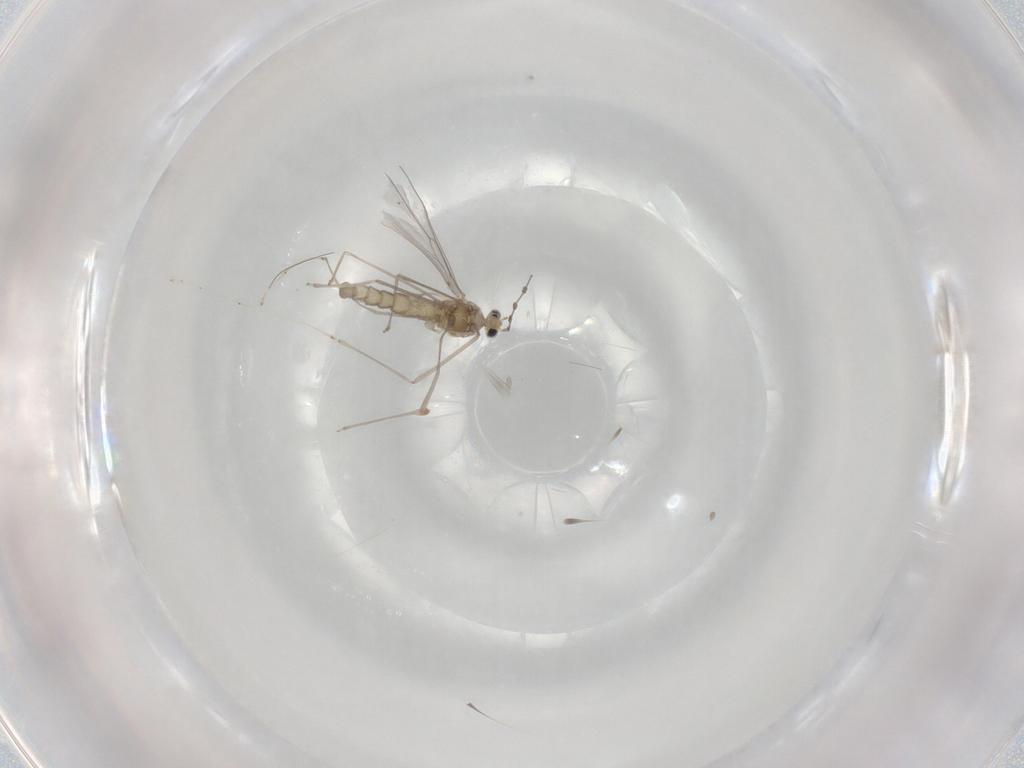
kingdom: Animalia
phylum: Arthropoda
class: Insecta
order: Diptera
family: Cecidomyiidae
